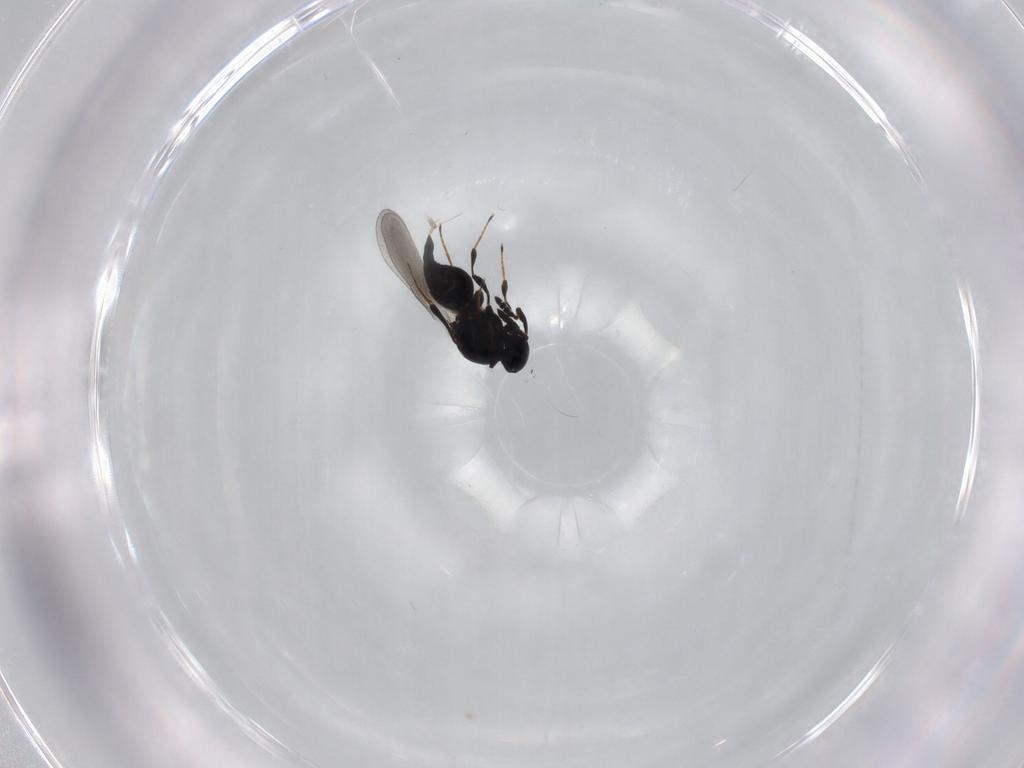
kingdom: Animalia
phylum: Arthropoda
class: Insecta
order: Hymenoptera
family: Platygastridae
